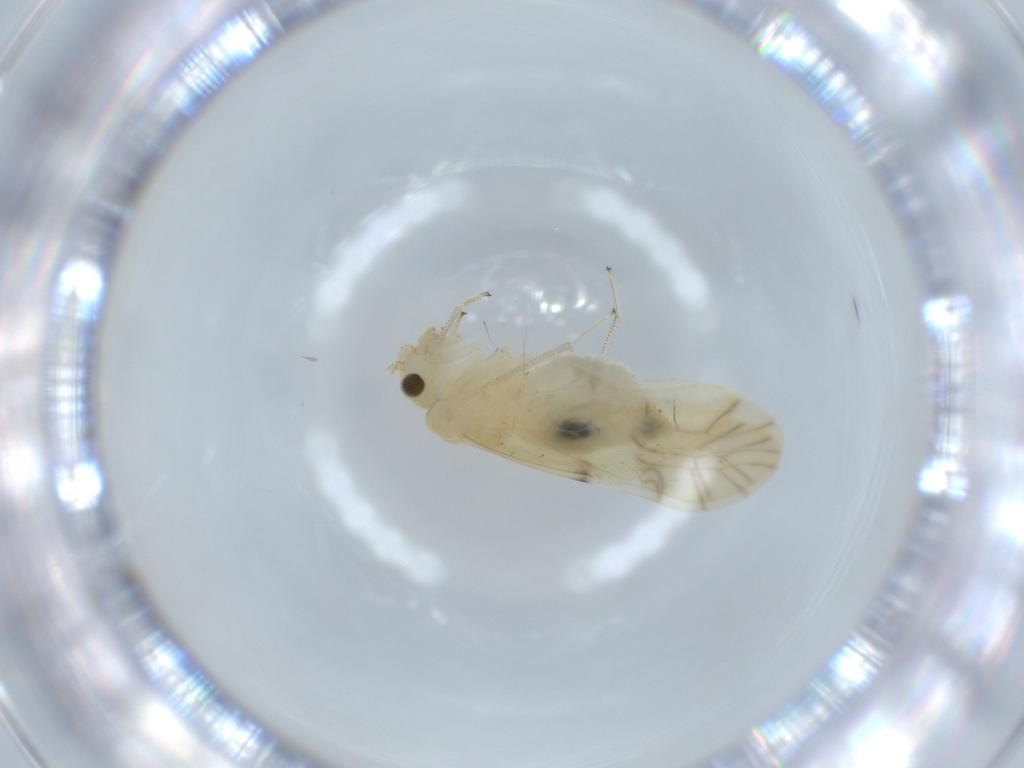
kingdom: Animalia
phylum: Arthropoda
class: Insecta
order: Psocodea
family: Caeciliusidae
